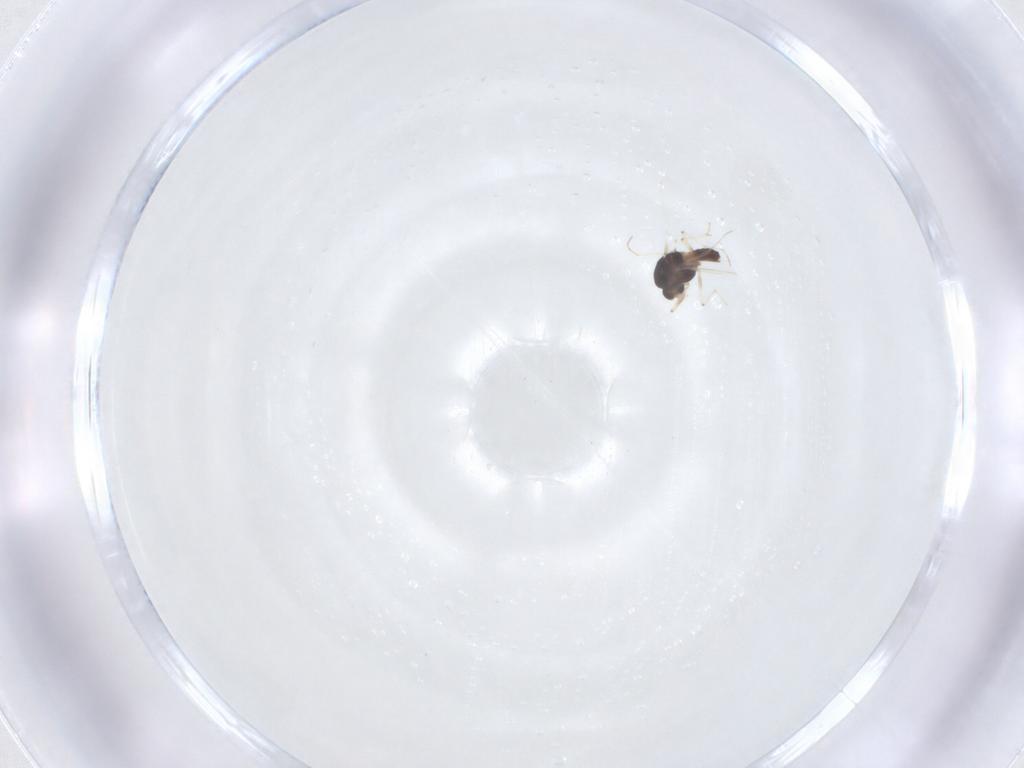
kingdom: Animalia
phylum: Arthropoda
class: Insecta
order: Diptera
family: Chironomidae
